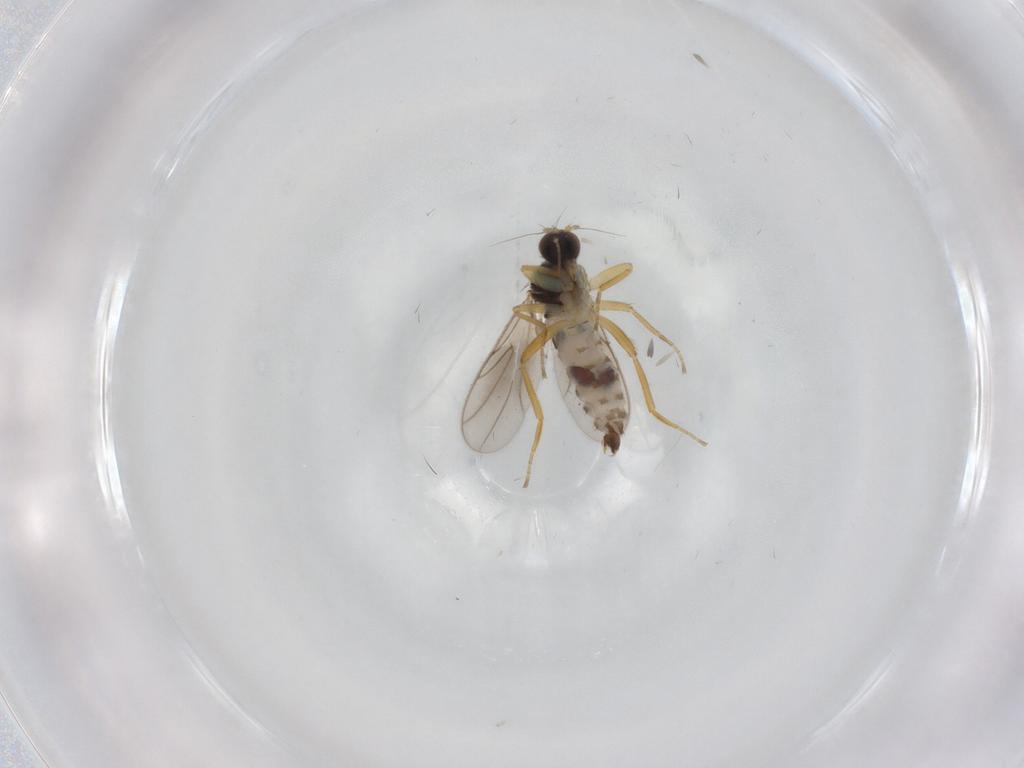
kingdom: Animalia
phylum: Arthropoda
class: Insecta
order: Diptera
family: Hybotidae
